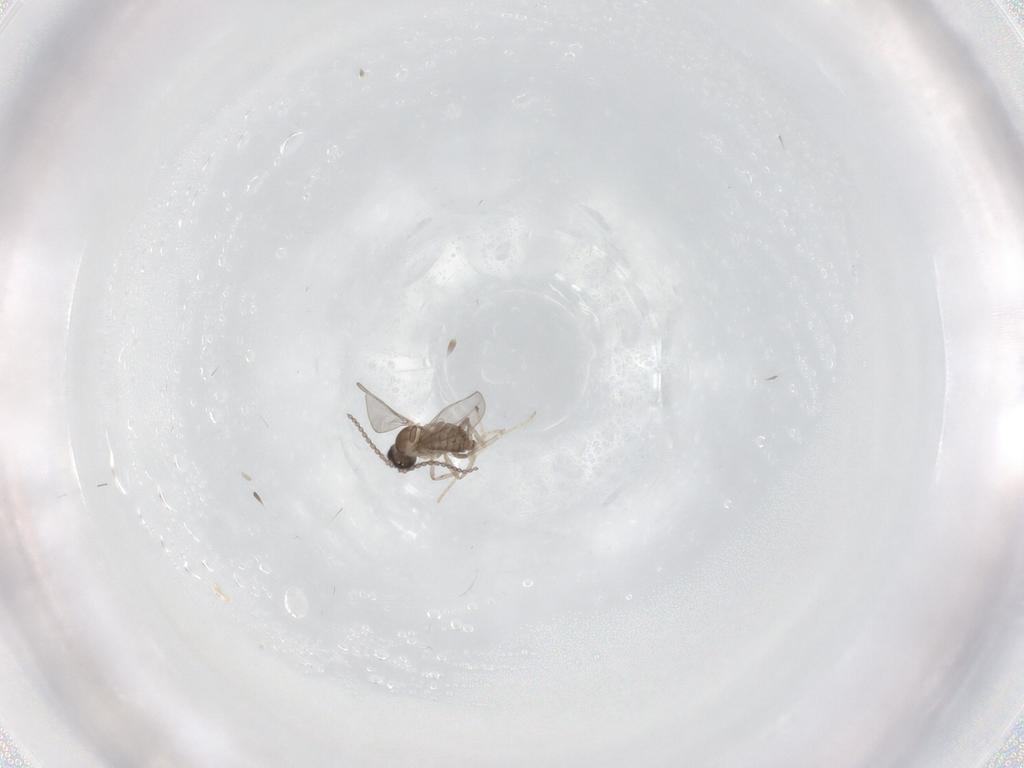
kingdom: Animalia
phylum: Arthropoda
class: Insecta
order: Diptera
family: Cecidomyiidae
